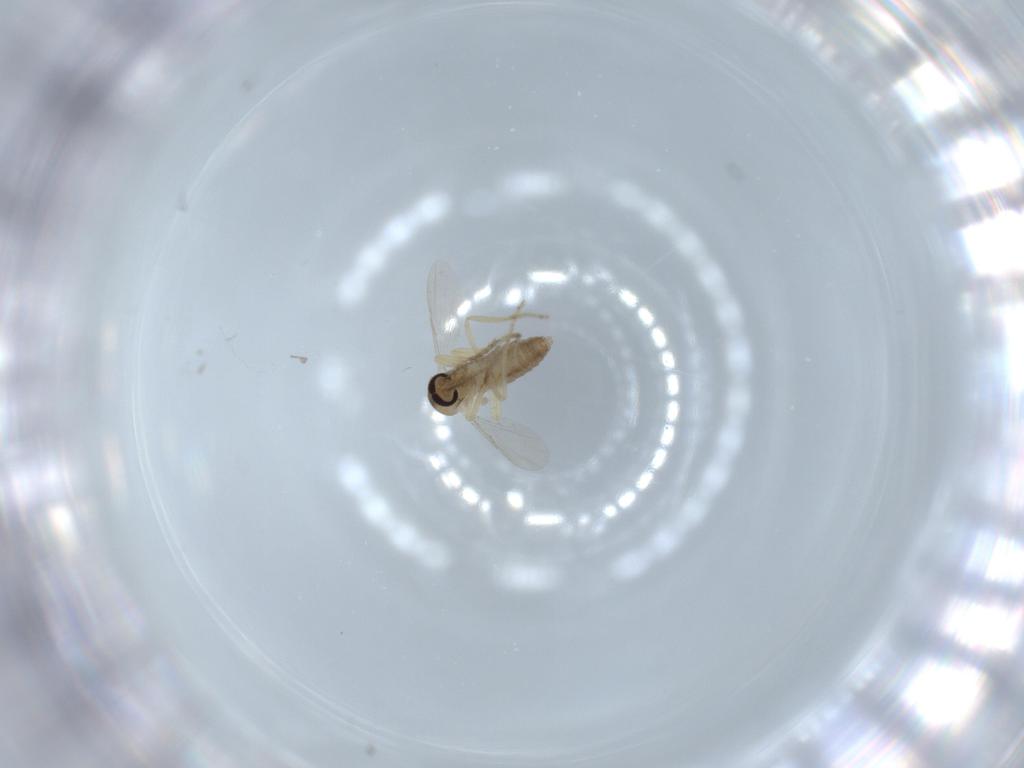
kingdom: Animalia
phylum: Arthropoda
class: Insecta
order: Diptera
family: Ceratopogonidae
